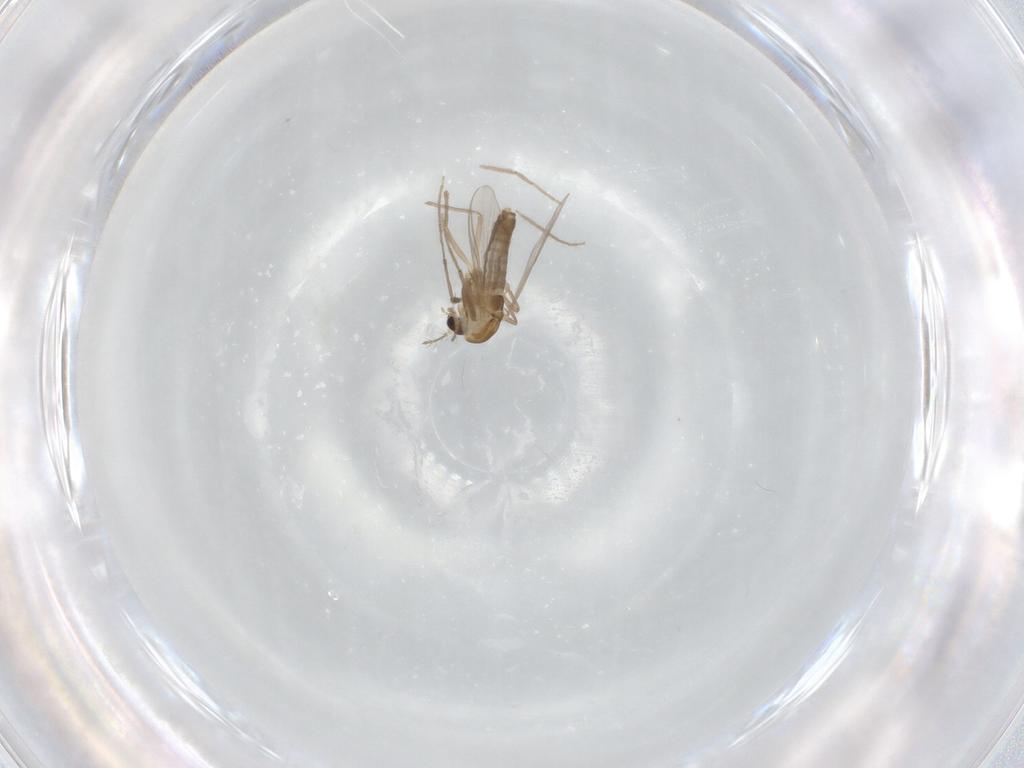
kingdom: Animalia
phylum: Arthropoda
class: Insecta
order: Diptera
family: Chironomidae
